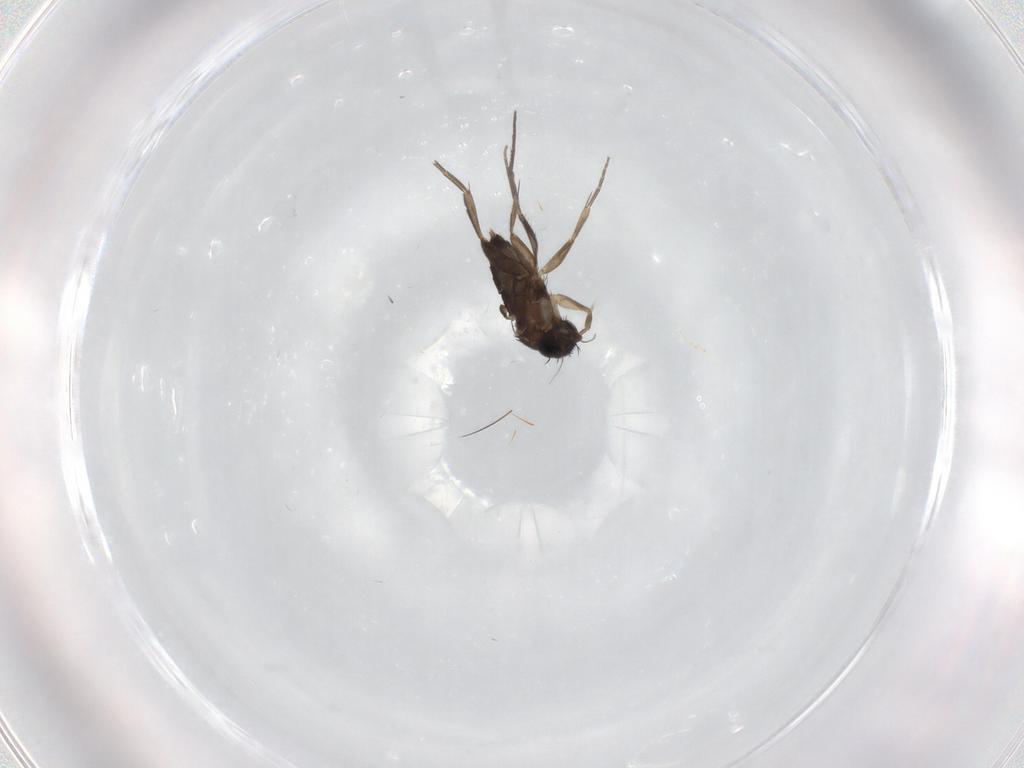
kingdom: Animalia
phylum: Arthropoda
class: Insecta
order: Diptera
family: Phoridae
